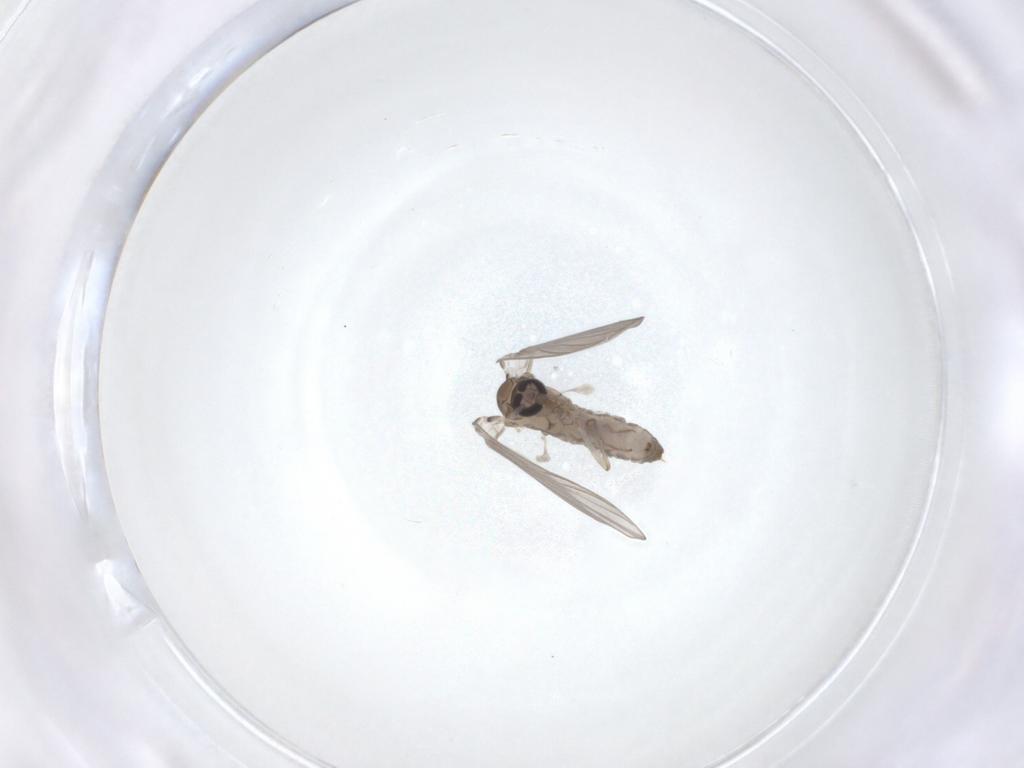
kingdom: Animalia
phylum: Arthropoda
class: Insecta
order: Diptera
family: Psychodidae
